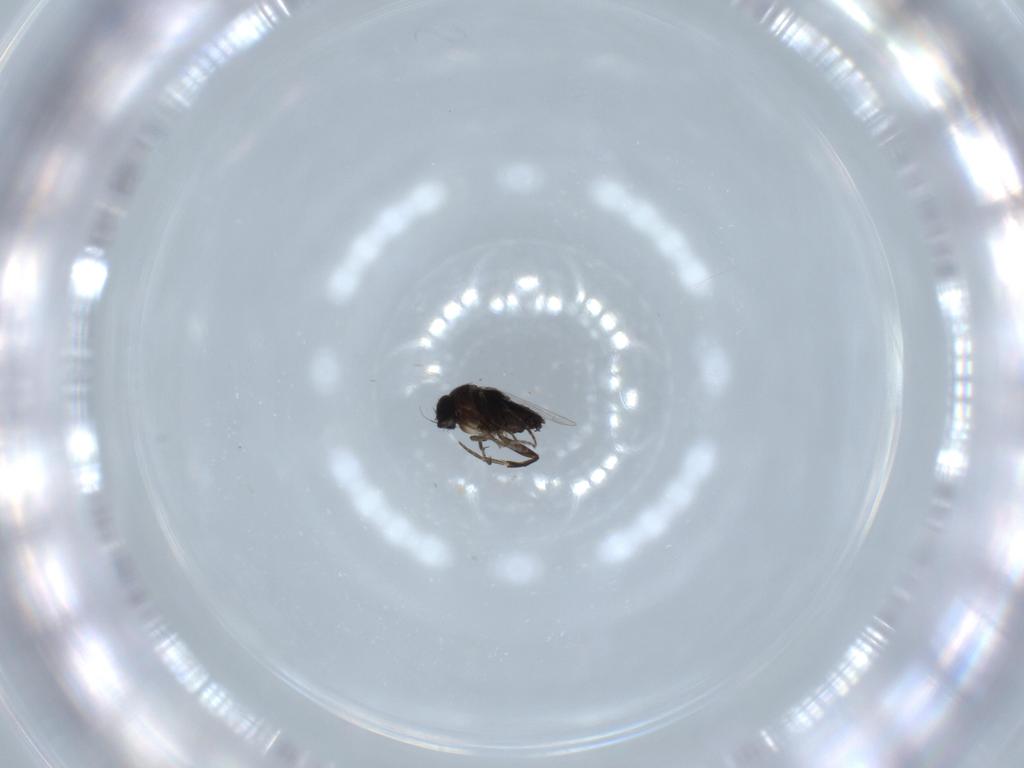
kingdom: Animalia
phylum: Arthropoda
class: Insecta
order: Diptera
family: Phoridae
